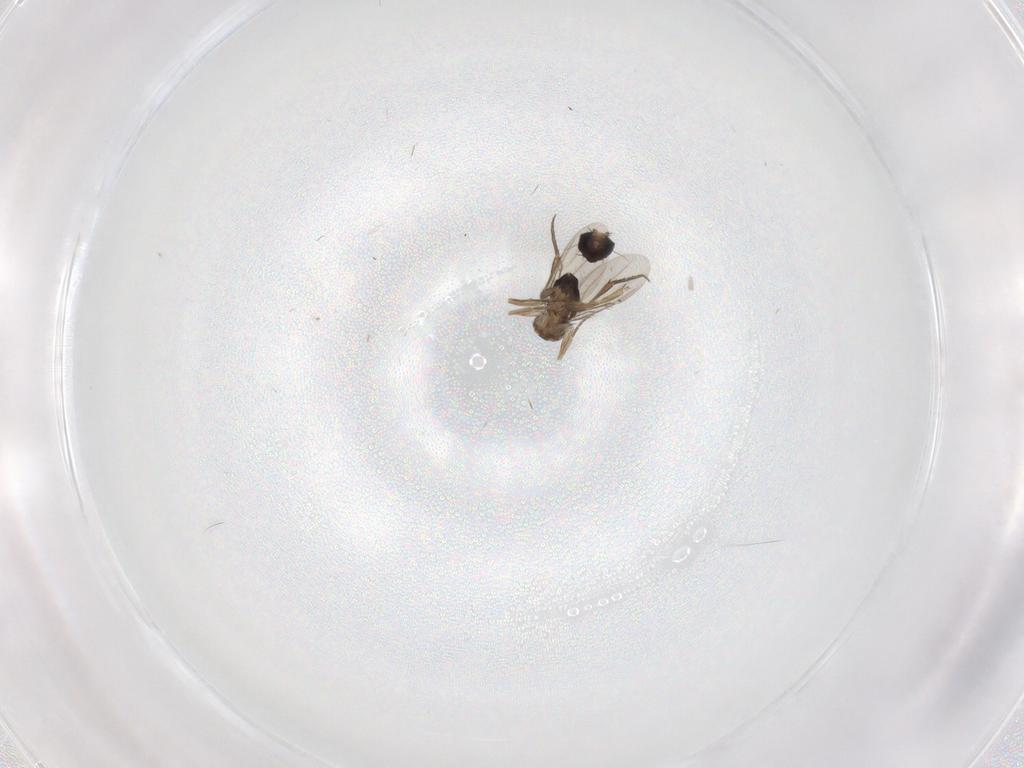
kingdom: Animalia
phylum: Arthropoda
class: Insecta
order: Diptera
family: Phoridae
